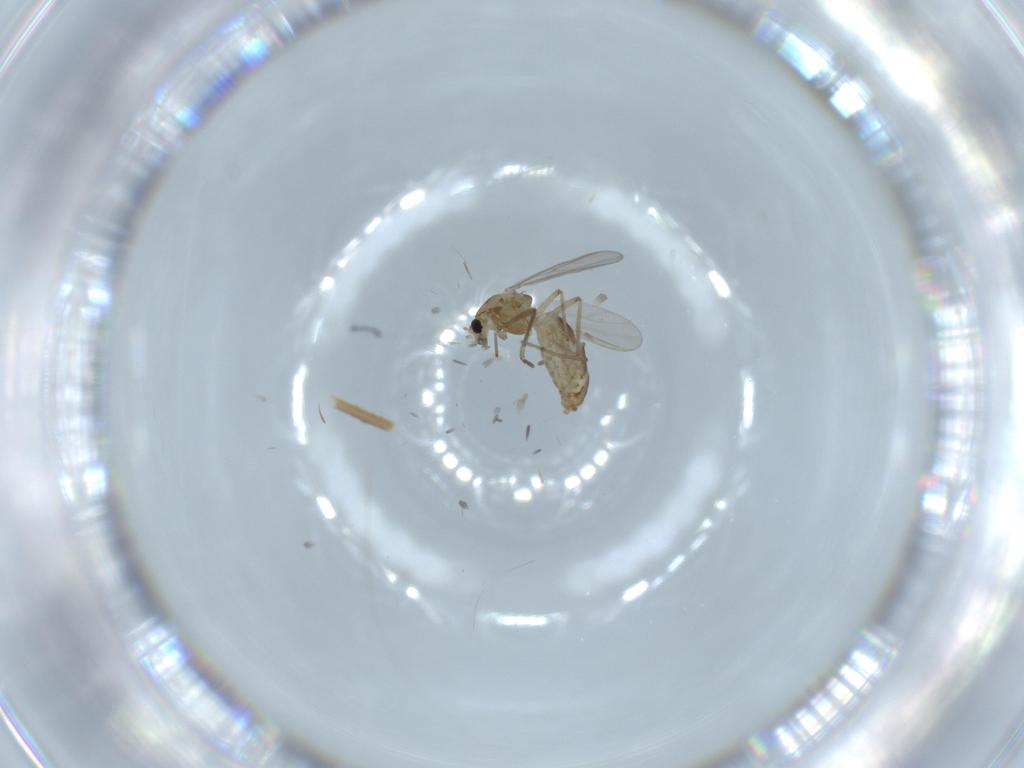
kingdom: Animalia
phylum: Arthropoda
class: Insecta
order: Diptera
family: Chironomidae
